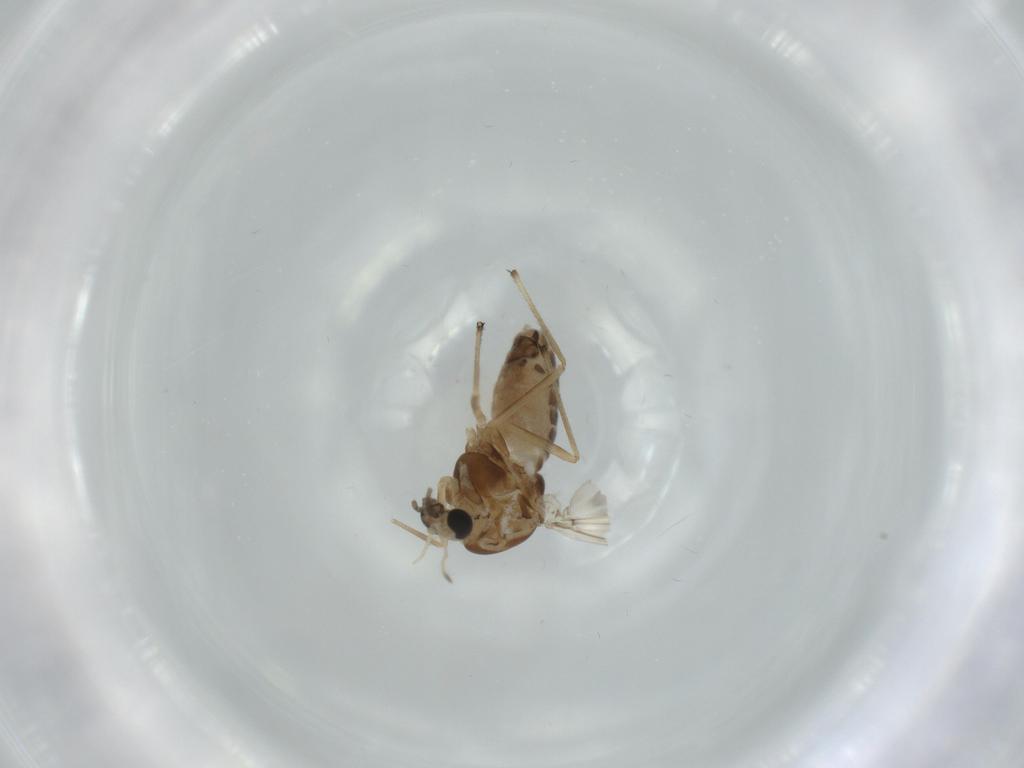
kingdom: Animalia
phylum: Arthropoda
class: Insecta
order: Diptera
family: Chironomidae
